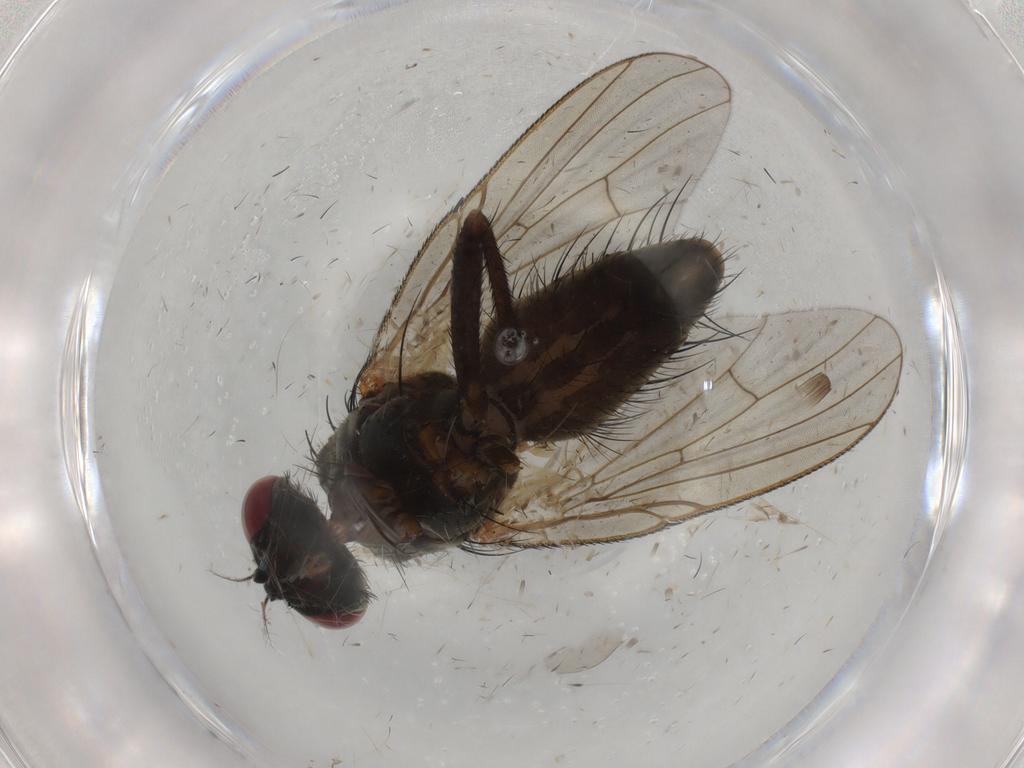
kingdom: Animalia
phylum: Arthropoda
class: Insecta
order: Diptera
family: Muscidae
